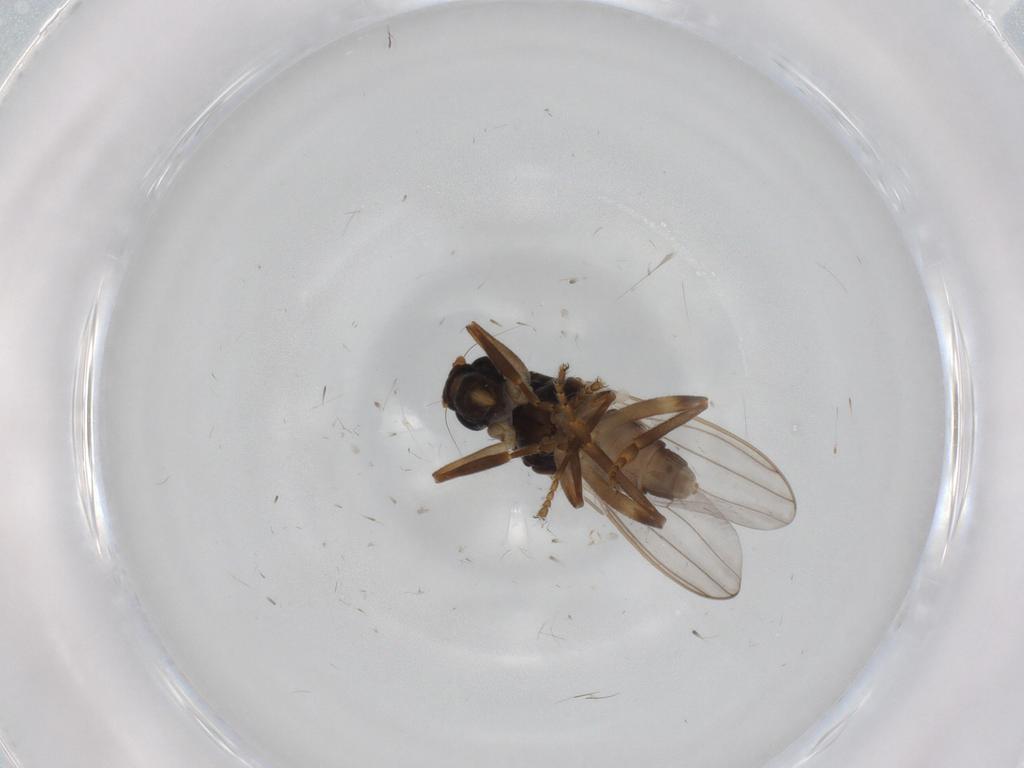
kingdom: Animalia
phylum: Arthropoda
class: Insecta
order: Diptera
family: Sphaeroceridae
